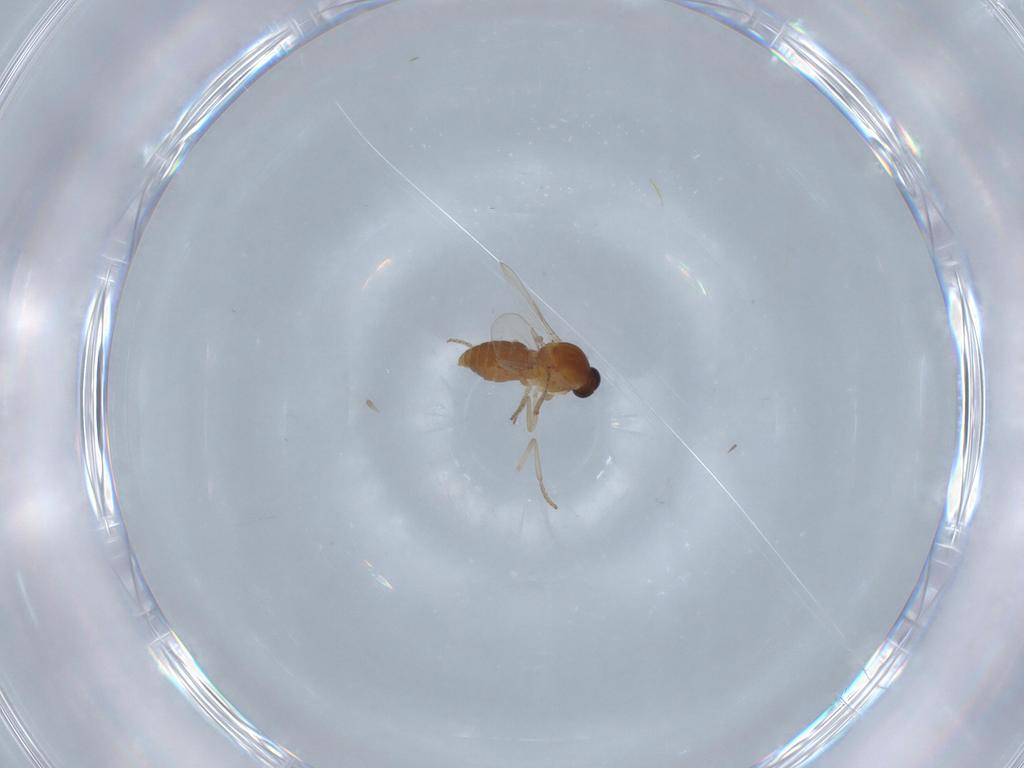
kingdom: Animalia
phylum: Arthropoda
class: Insecta
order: Diptera
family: Ceratopogonidae
